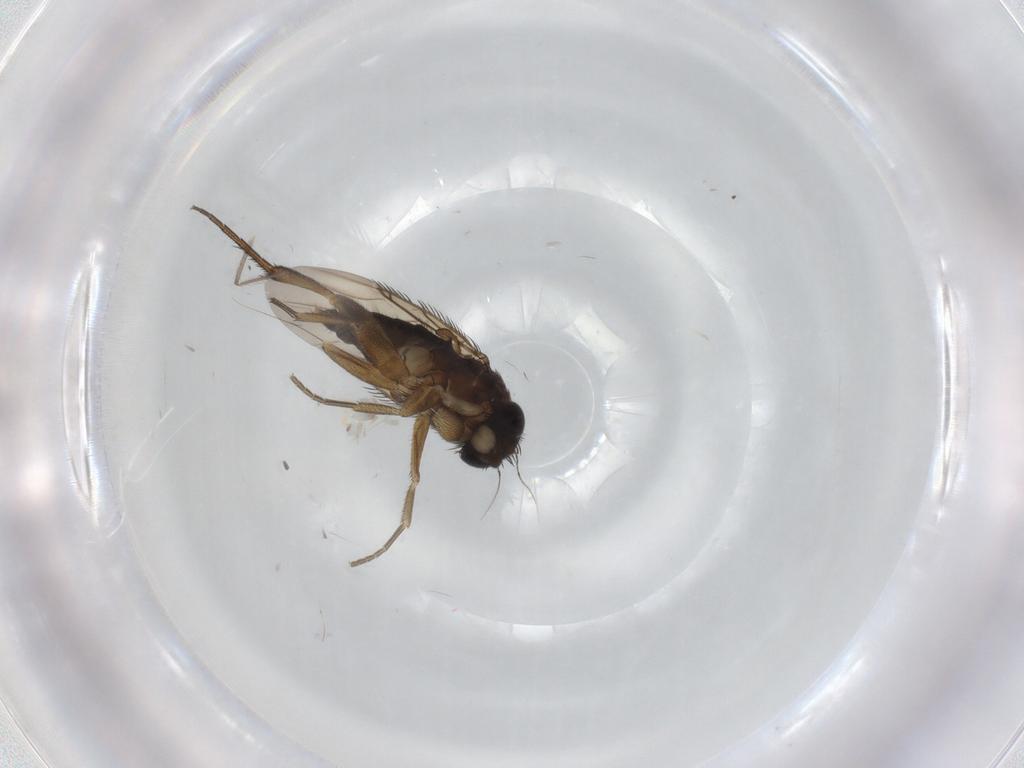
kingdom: Animalia
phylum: Arthropoda
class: Insecta
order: Diptera
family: Phoridae
